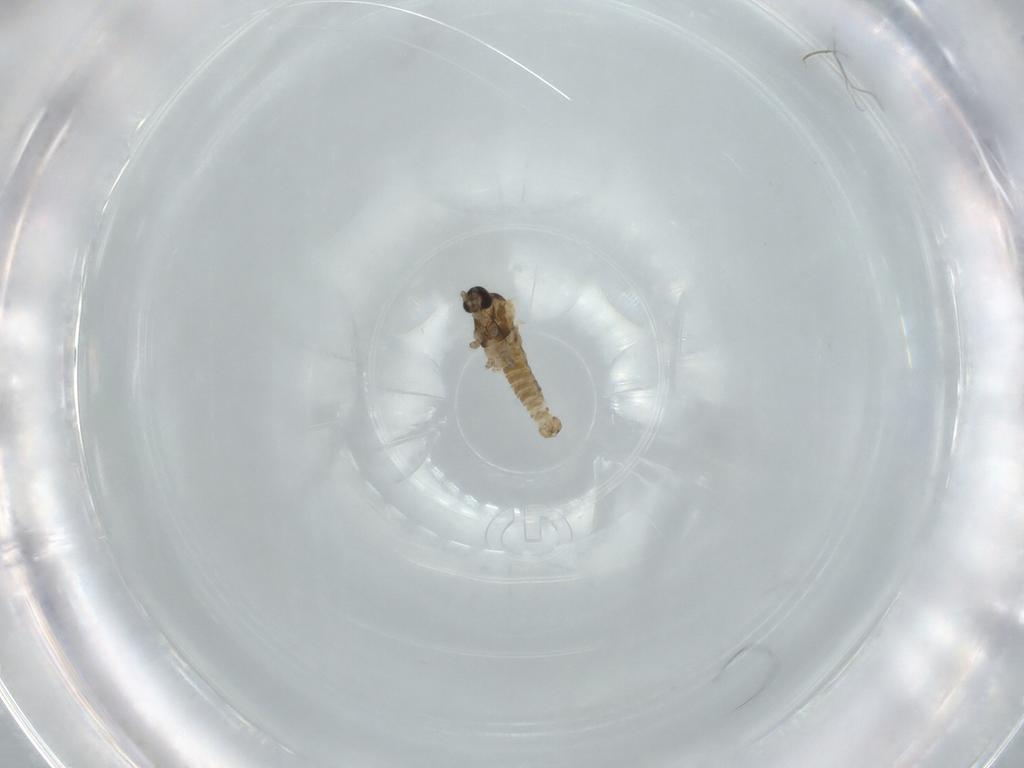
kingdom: Animalia
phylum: Arthropoda
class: Insecta
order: Diptera
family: Cecidomyiidae
